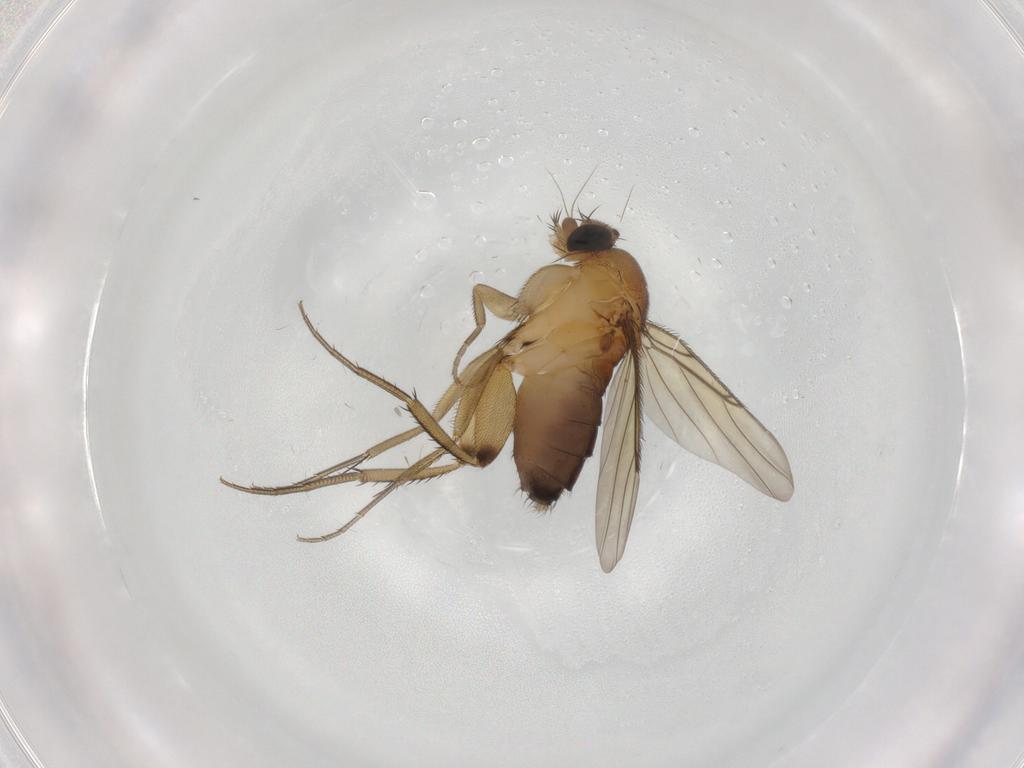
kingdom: Animalia
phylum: Arthropoda
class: Insecta
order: Diptera
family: Phoridae
